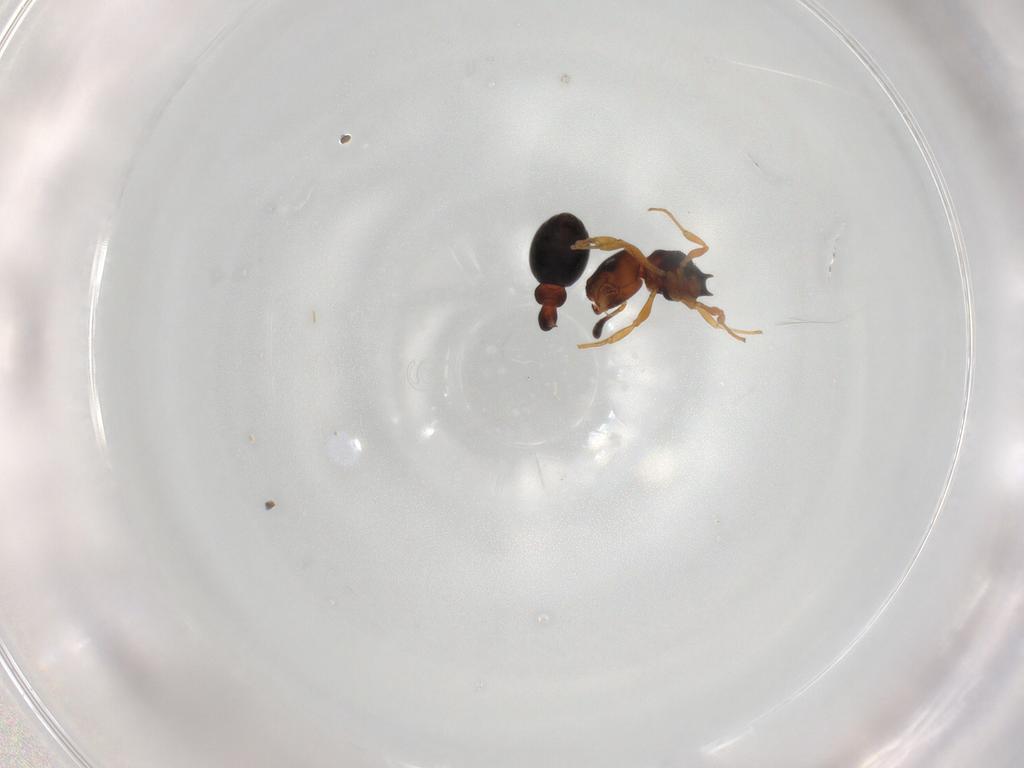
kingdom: Animalia
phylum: Arthropoda
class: Insecta
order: Hymenoptera
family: Formicidae
